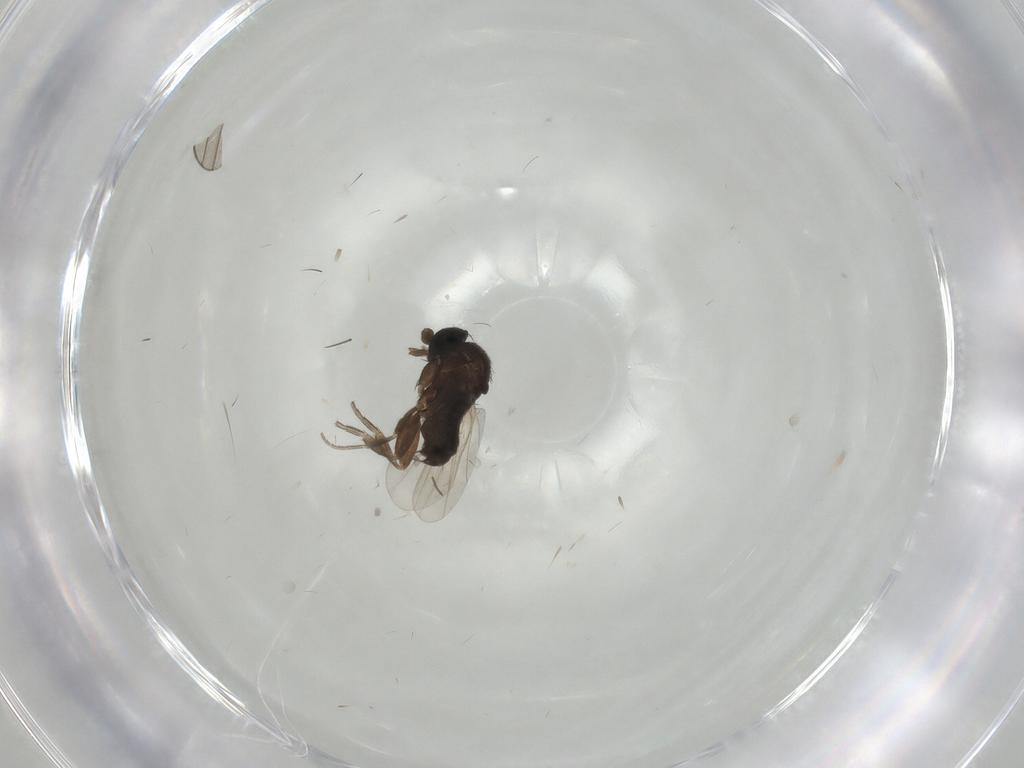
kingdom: Animalia
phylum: Arthropoda
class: Insecta
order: Diptera
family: Phoridae
